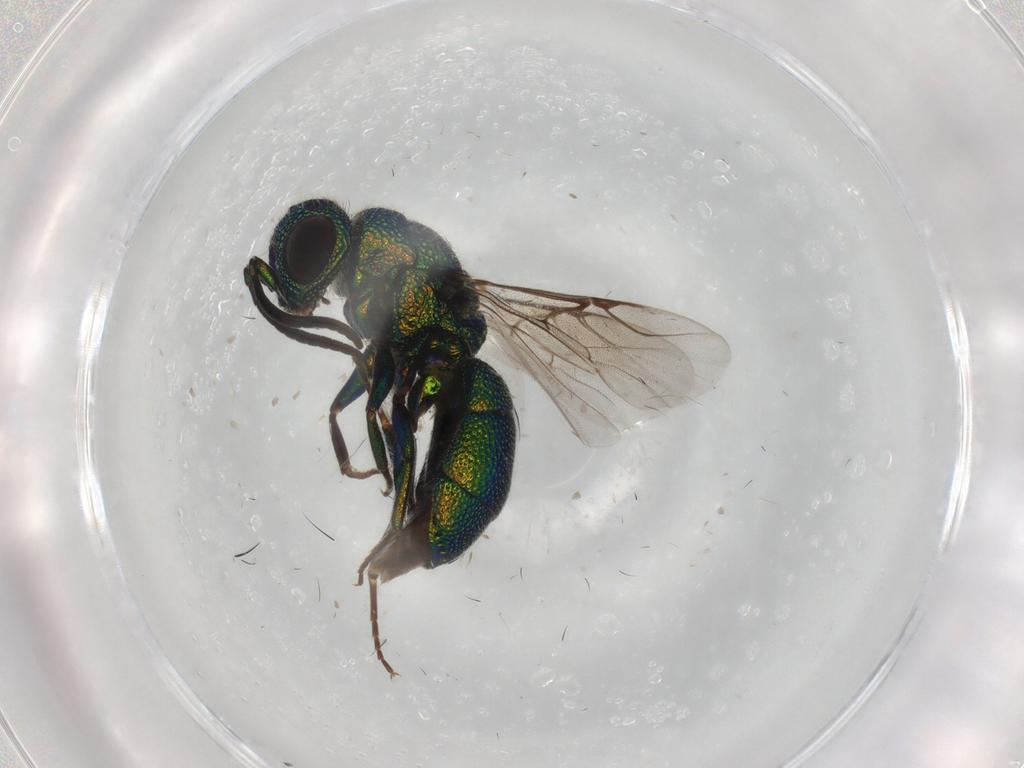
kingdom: Animalia
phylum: Arthropoda
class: Insecta
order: Hymenoptera
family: Chrysididae
